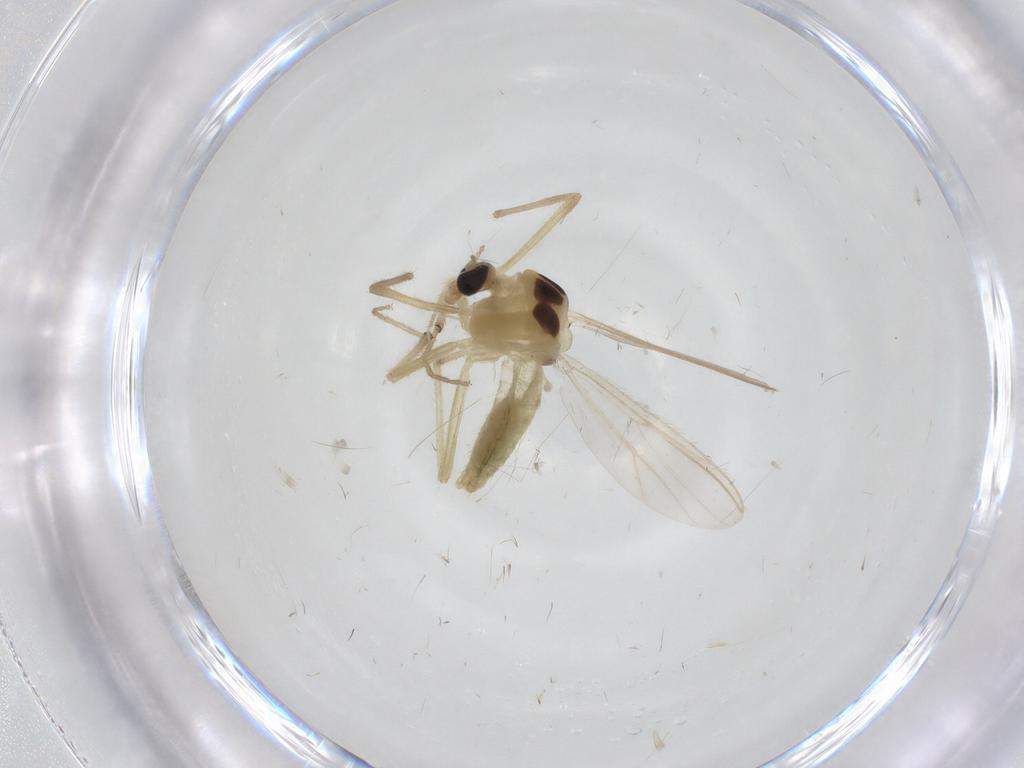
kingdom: Animalia
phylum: Arthropoda
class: Insecta
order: Diptera
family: Chironomidae
